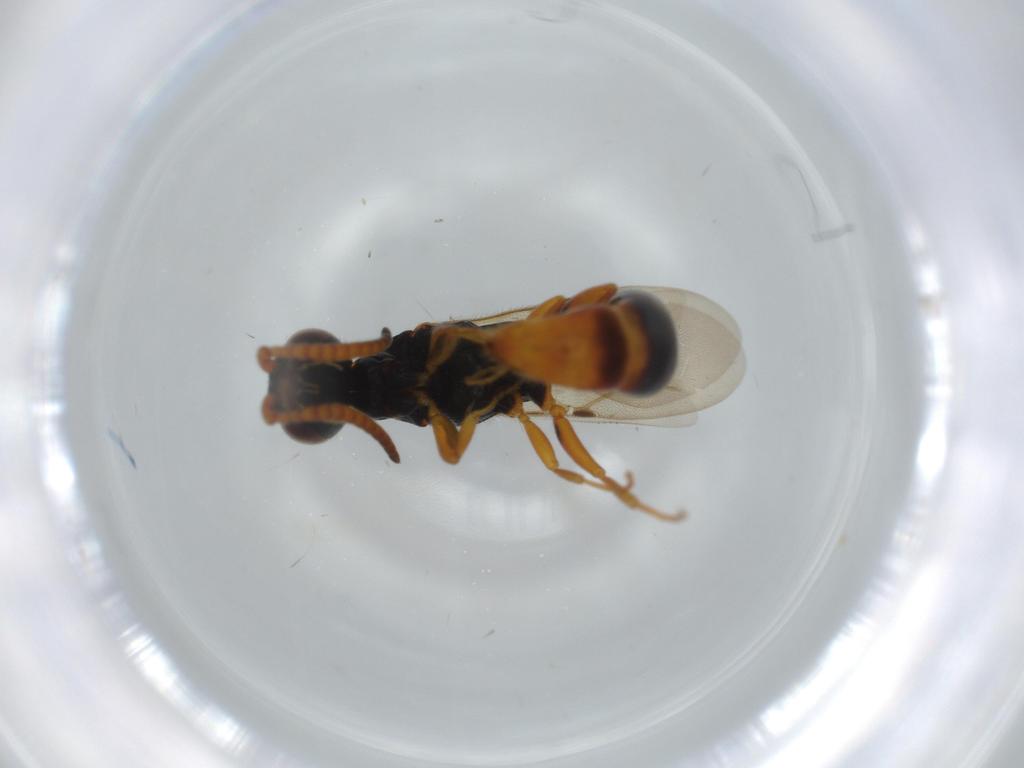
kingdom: Animalia
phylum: Arthropoda
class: Insecta
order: Hymenoptera
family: Bethylidae
